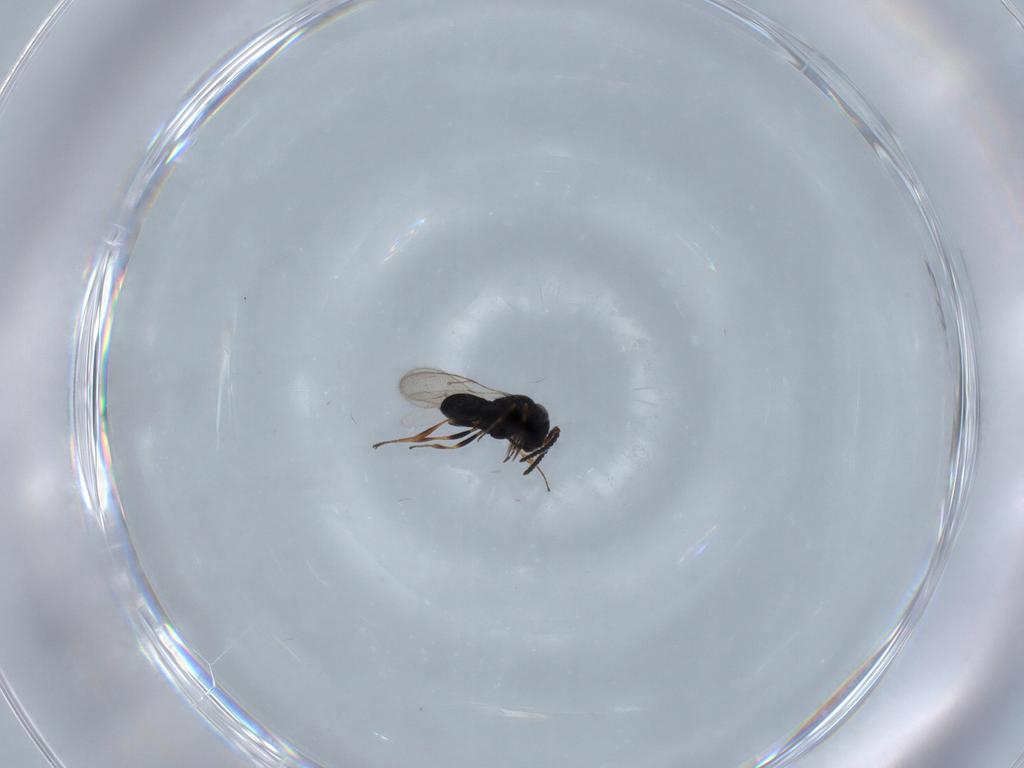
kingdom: Animalia
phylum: Arthropoda
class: Insecta
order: Hymenoptera
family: Scelionidae
